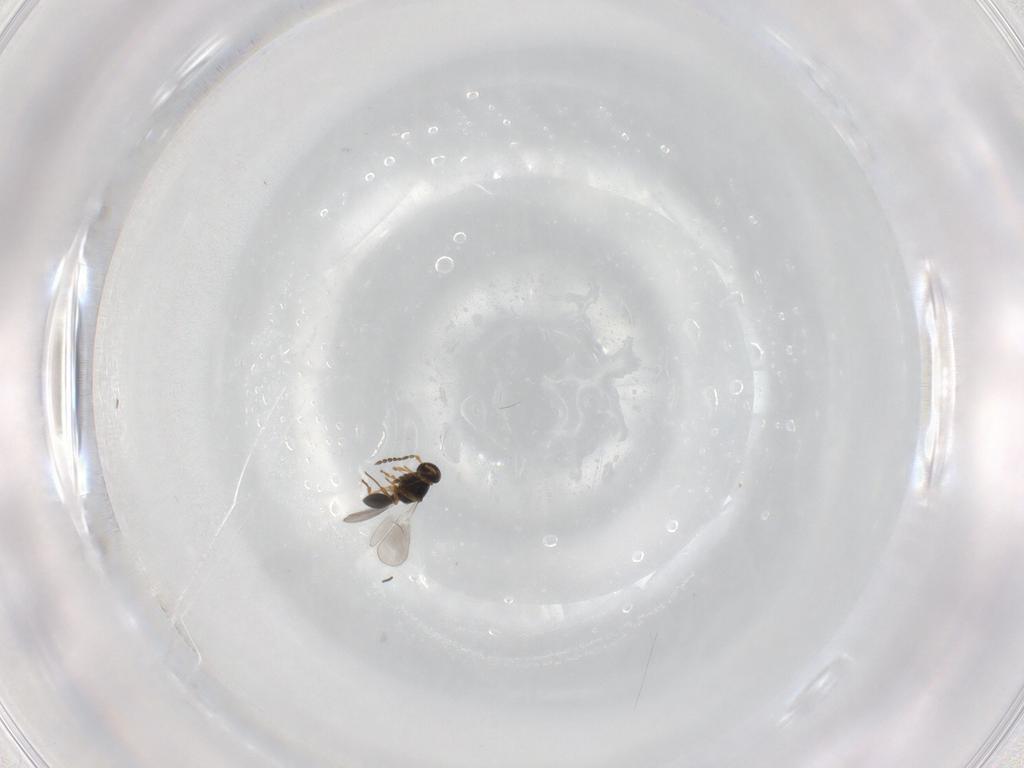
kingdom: Animalia
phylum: Arthropoda
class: Insecta
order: Hymenoptera
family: Platygastridae
